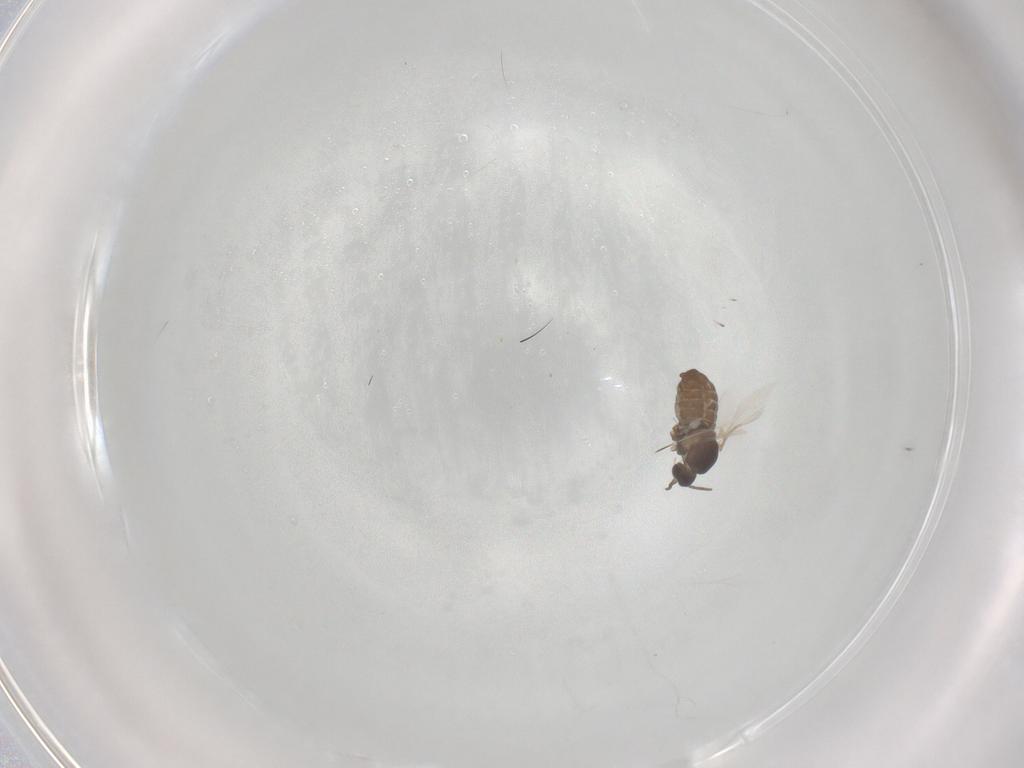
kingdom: Animalia
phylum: Arthropoda
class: Insecta
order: Diptera
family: Cecidomyiidae
